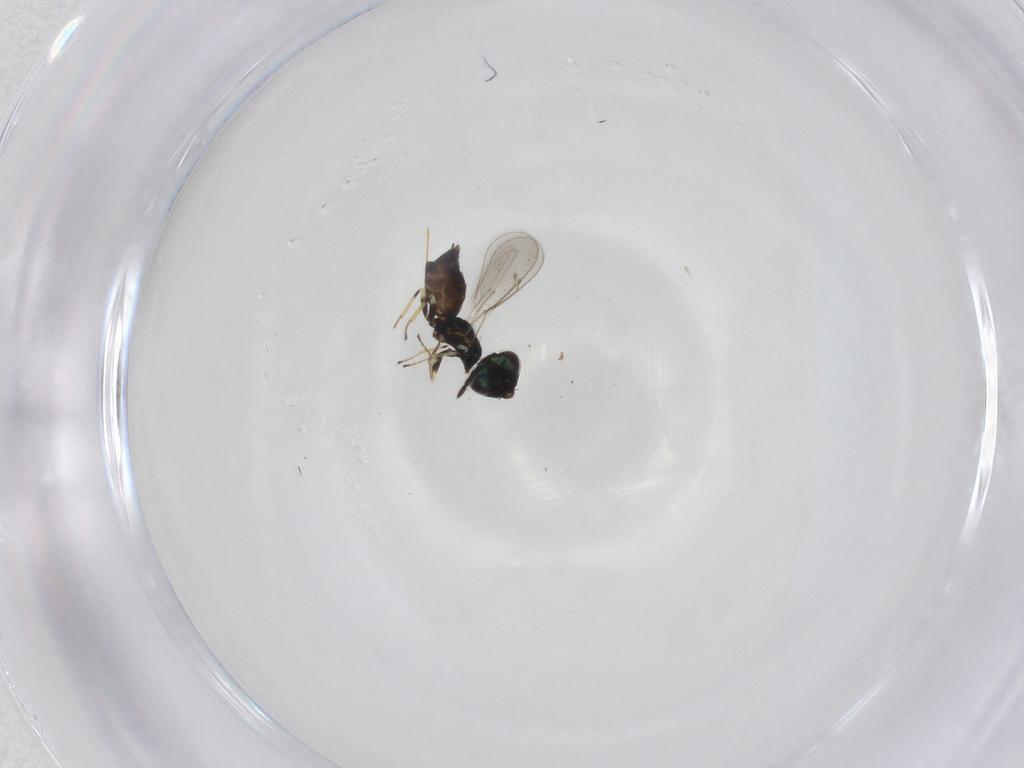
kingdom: Animalia
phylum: Arthropoda
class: Insecta
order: Hymenoptera
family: Eulophidae
